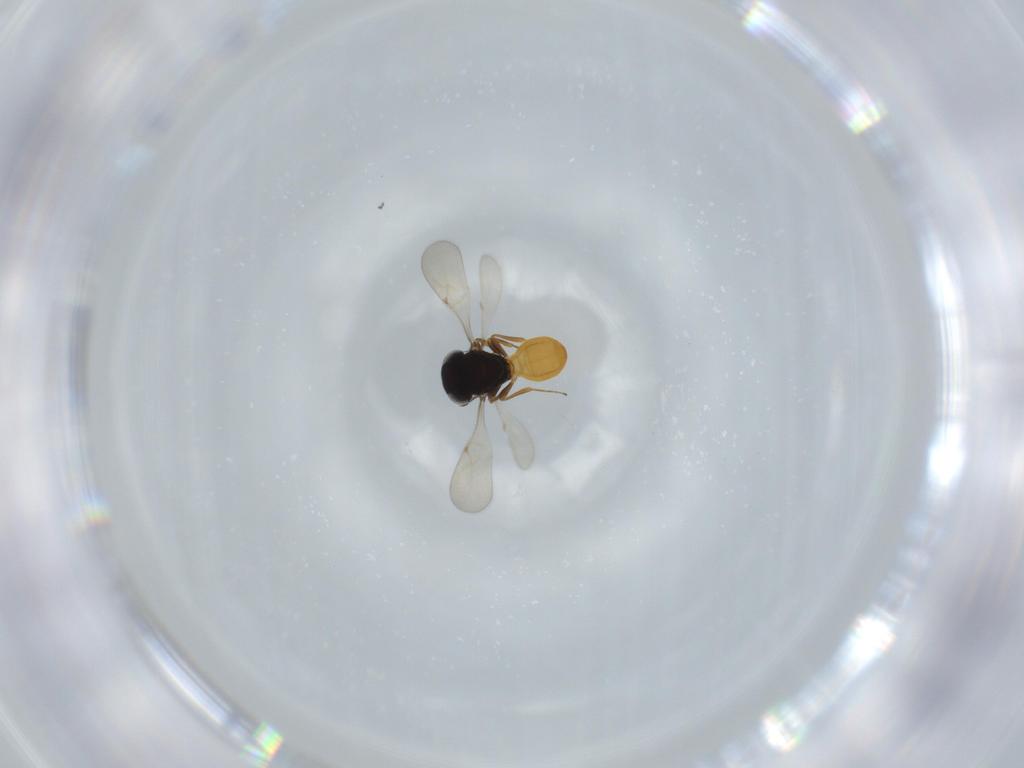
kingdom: Animalia
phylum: Arthropoda
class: Insecta
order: Hymenoptera
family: Scelionidae
